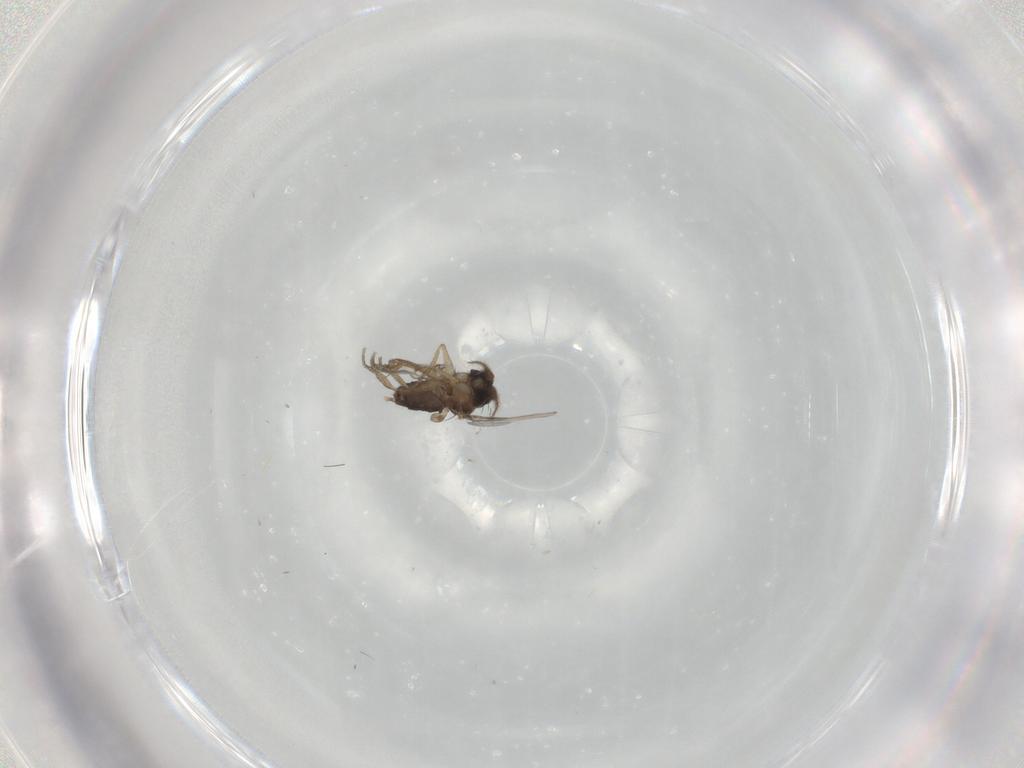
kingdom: Animalia
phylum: Arthropoda
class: Insecta
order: Diptera
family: Phoridae
